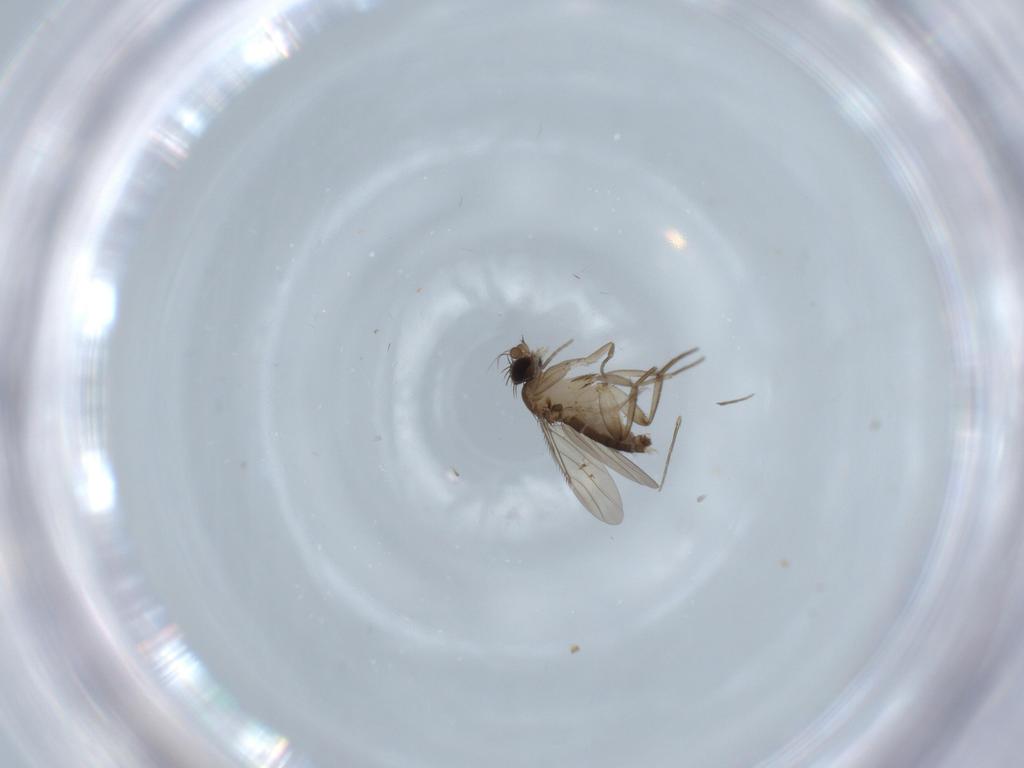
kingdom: Animalia
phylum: Arthropoda
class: Insecta
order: Diptera
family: Phoridae
